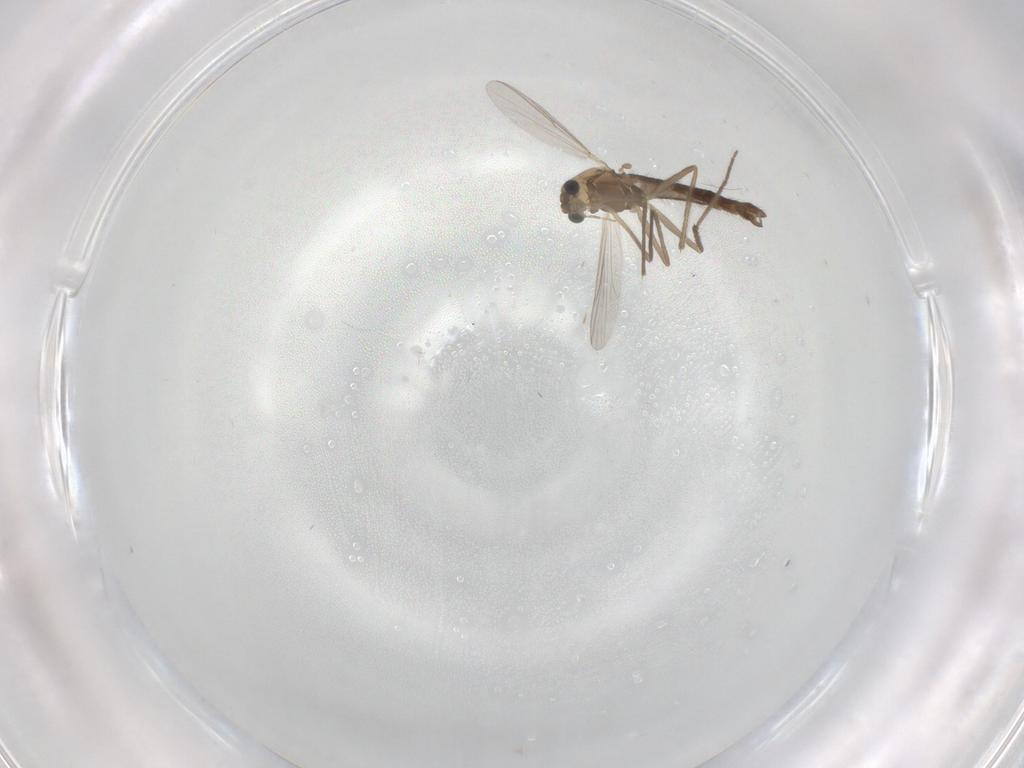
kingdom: Animalia
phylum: Arthropoda
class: Insecta
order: Diptera
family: Chironomidae
